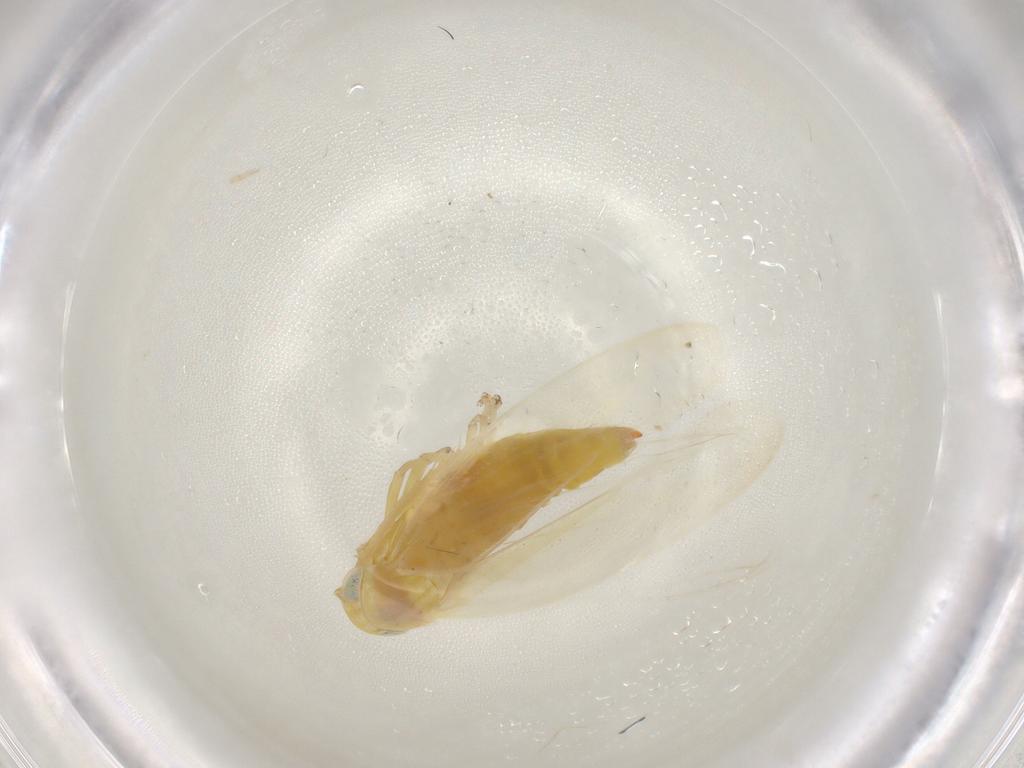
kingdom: Animalia
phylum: Arthropoda
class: Insecta
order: Hemiptera
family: Cicadellidae
